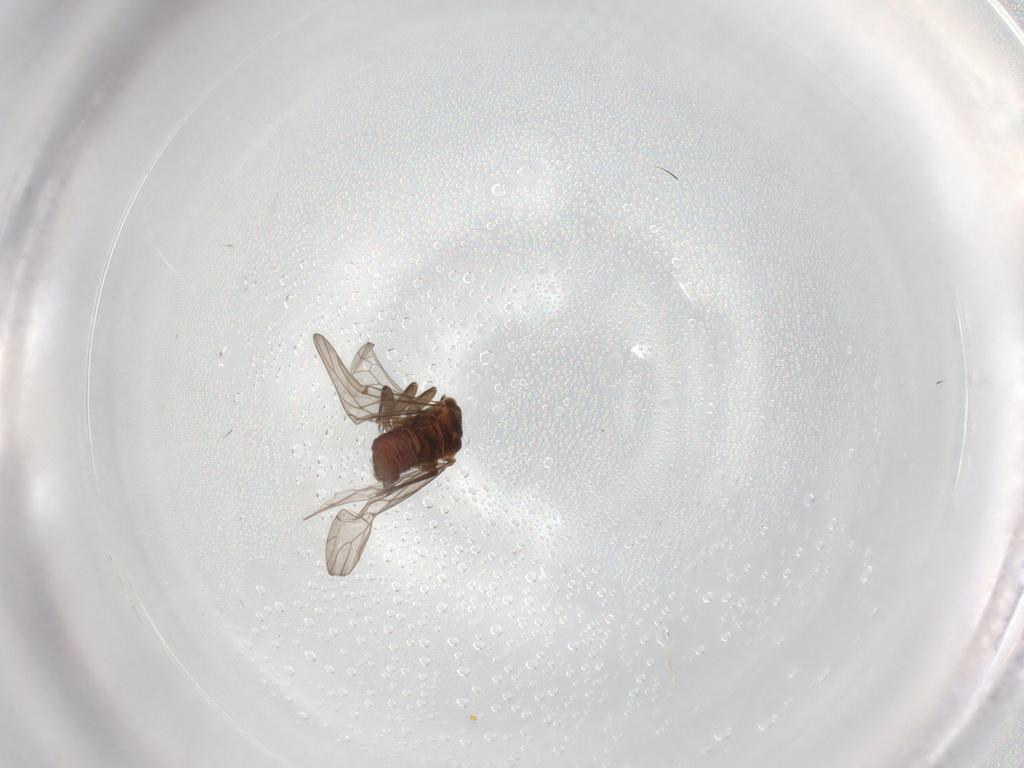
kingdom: Animalia
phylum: Arthropoda
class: Insecta
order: Psocodea
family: Ectopsocidae
